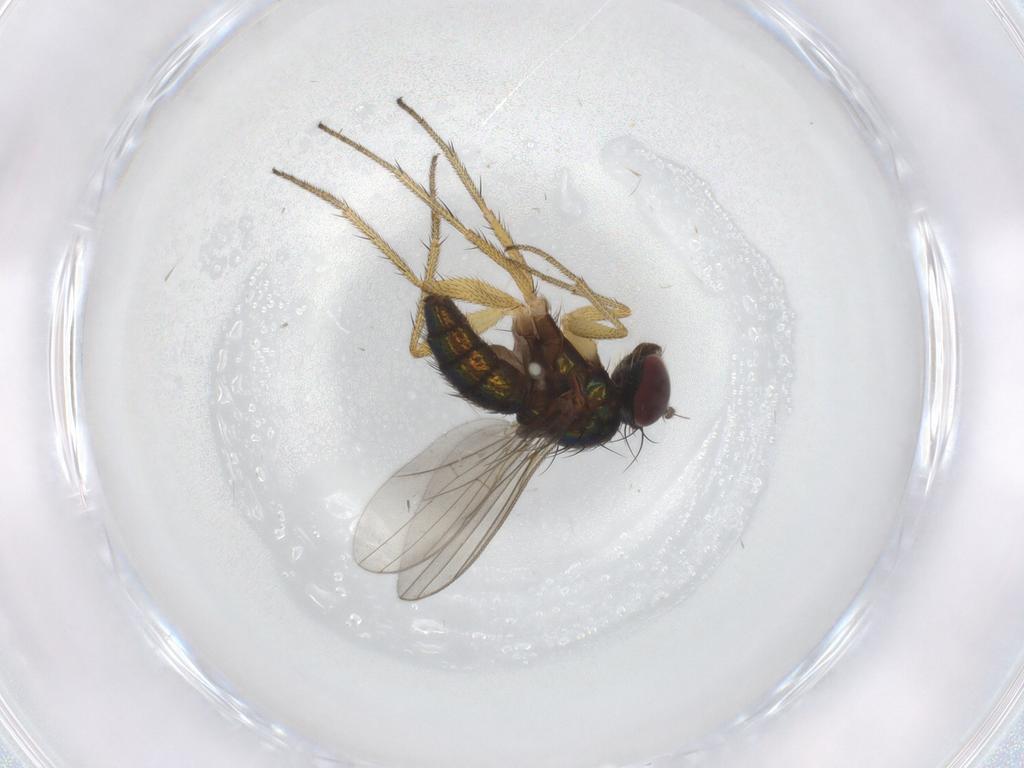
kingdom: Animalia
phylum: Arthropoda
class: Insecta
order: Diptera
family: Dolichopodidae
